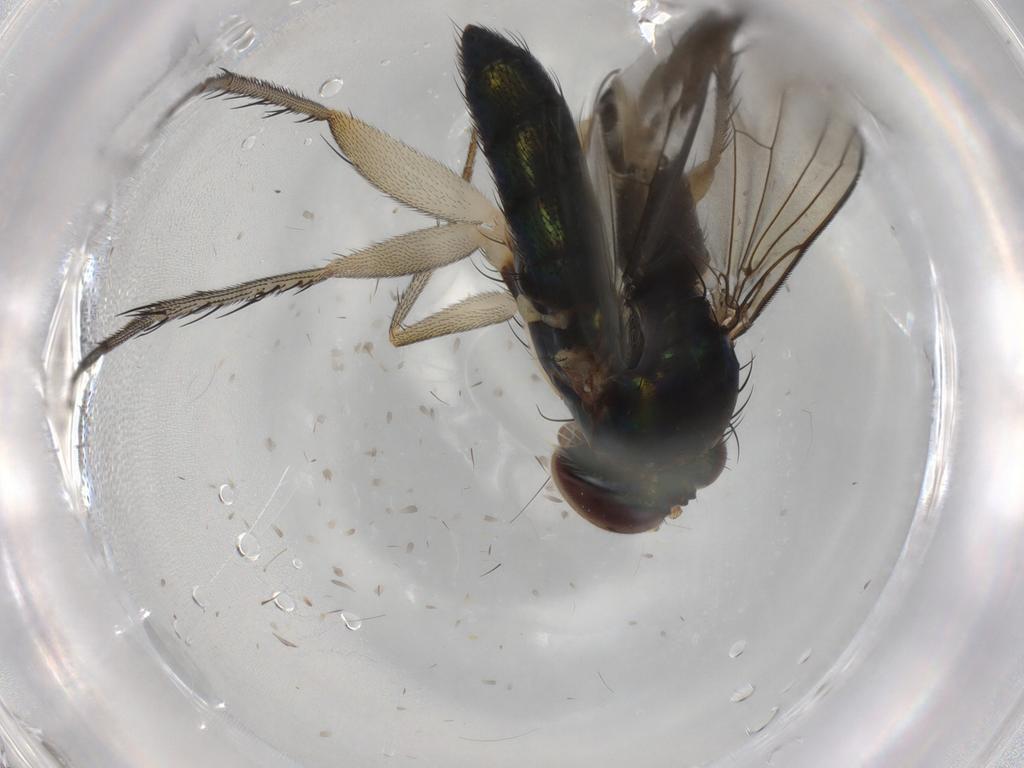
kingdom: Animalia
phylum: Arthropoda
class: Insecta
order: Diptera
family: Dolichopodidae
